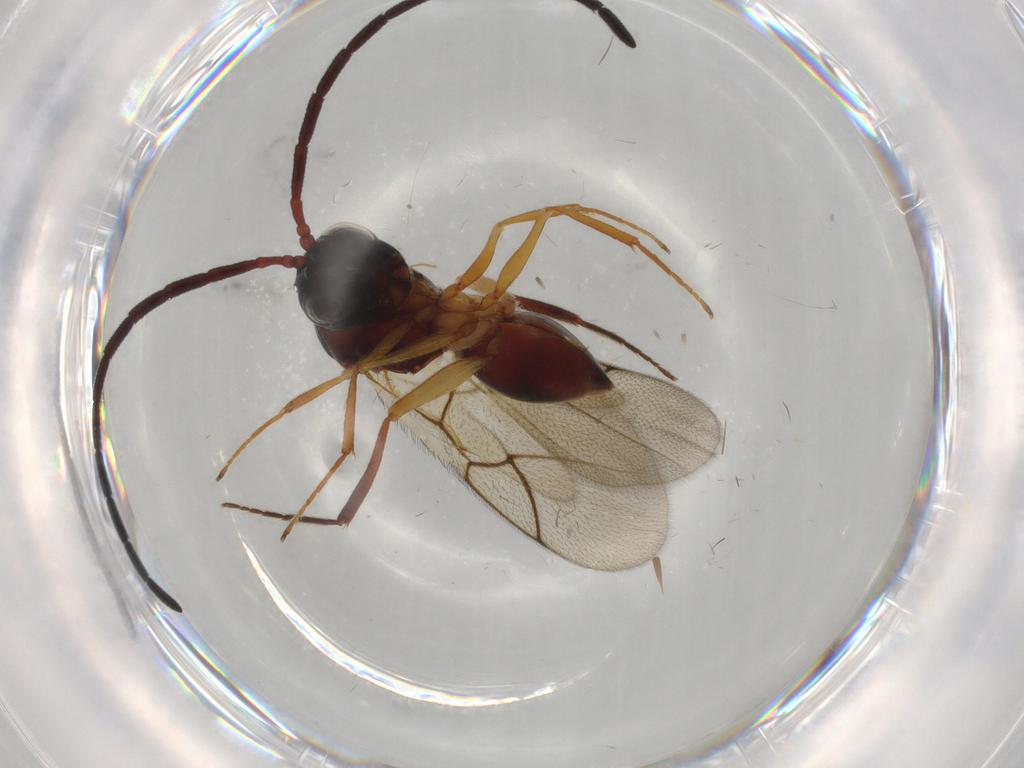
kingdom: Animalia
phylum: Arthropoda
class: Insecta
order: Hymenoptera
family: Figitidae
